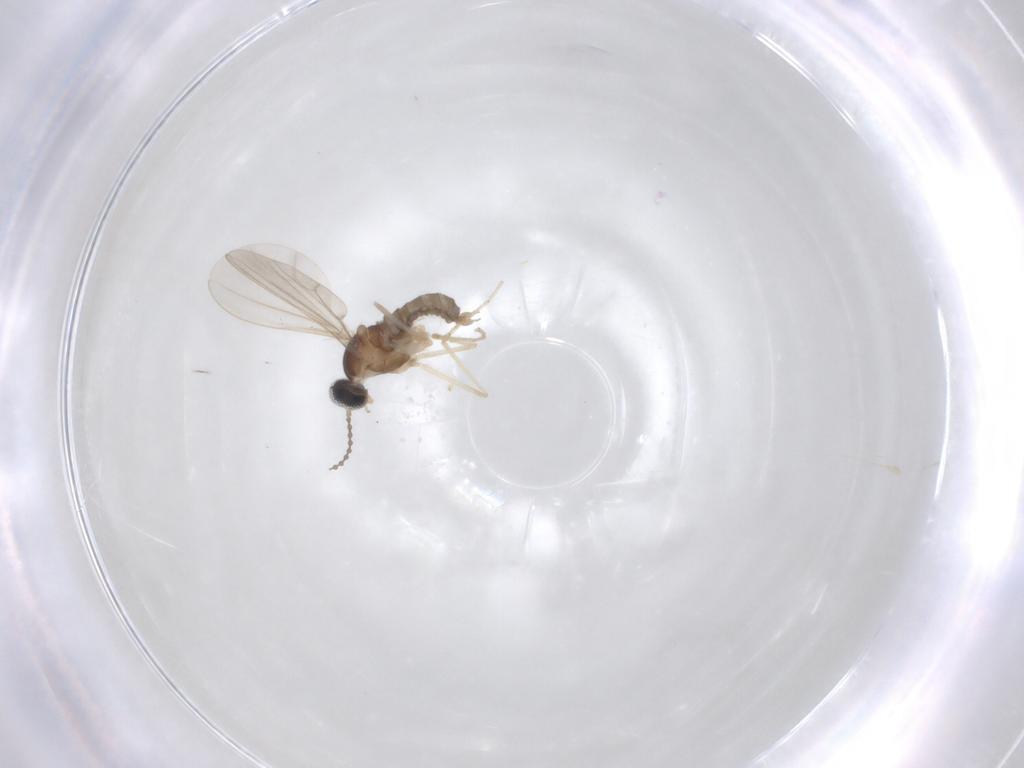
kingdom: Animalia
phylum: Arthropoda
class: Insecta
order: Diptera
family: Cecidomyiidae
